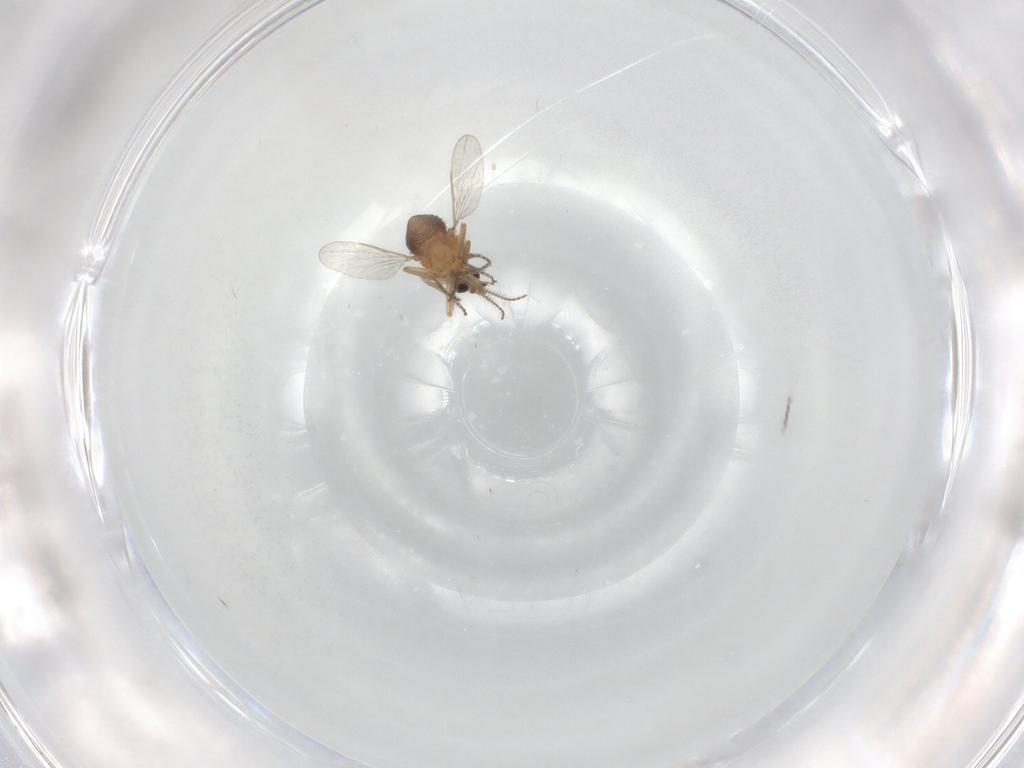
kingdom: Animalia
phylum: Arthropoda
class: Insecta
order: Diptera
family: Ceratopogonidae
